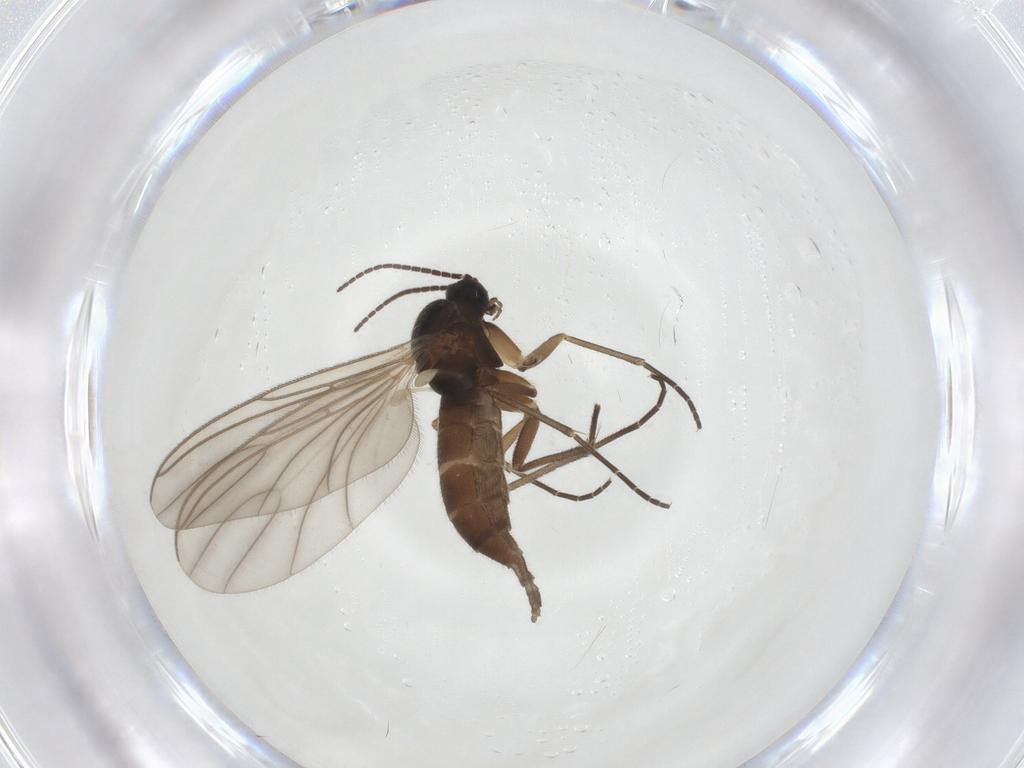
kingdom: Animalia
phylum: Arthropoda
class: Insecta
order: Diptera
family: Sciaridae
